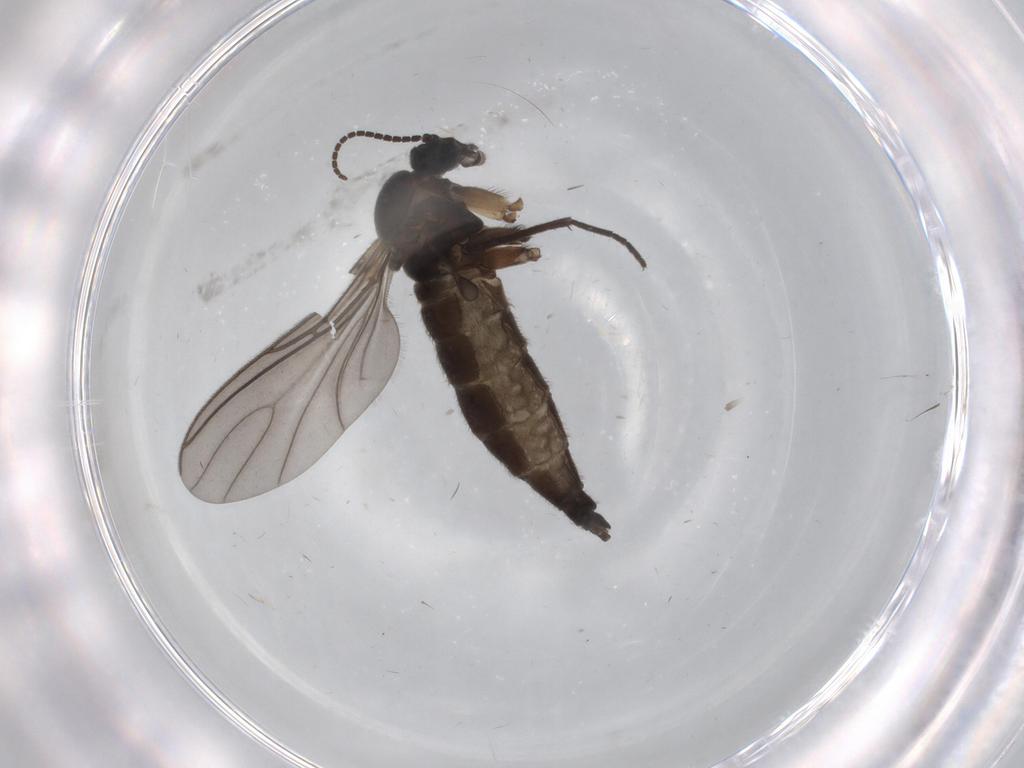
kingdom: Animalia
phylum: Arthropoda
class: Insecta
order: Diptera
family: Sciaridae
